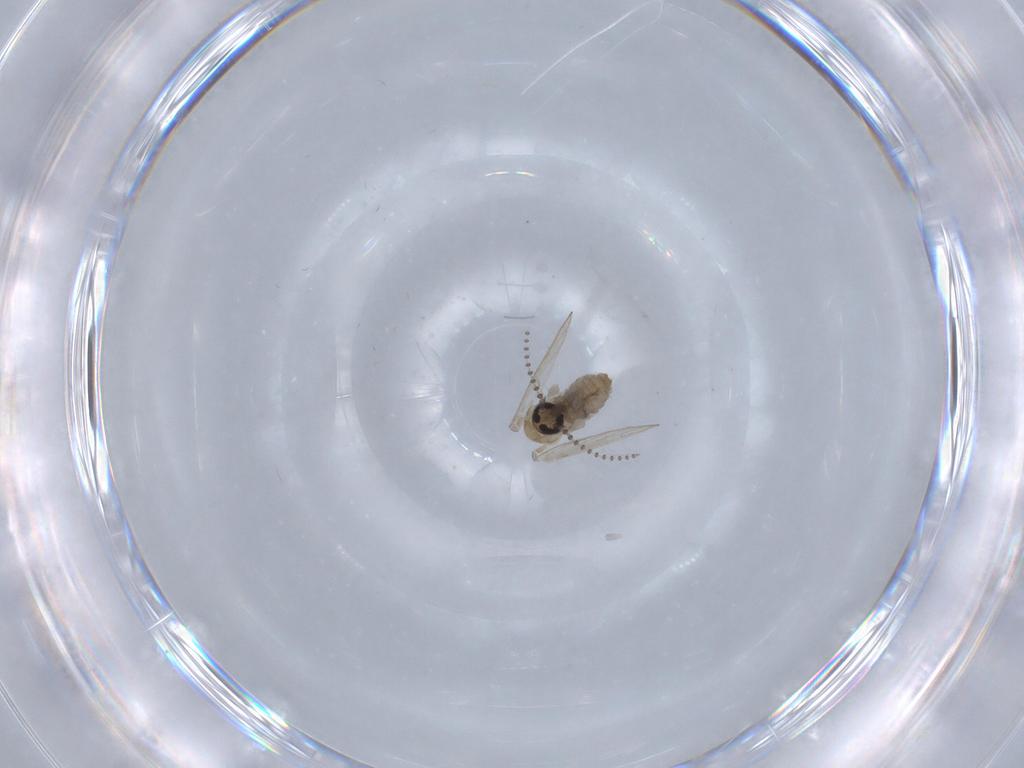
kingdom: Animalia
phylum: Arthropoda
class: Insecta
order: Diptera
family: Psychodidae
